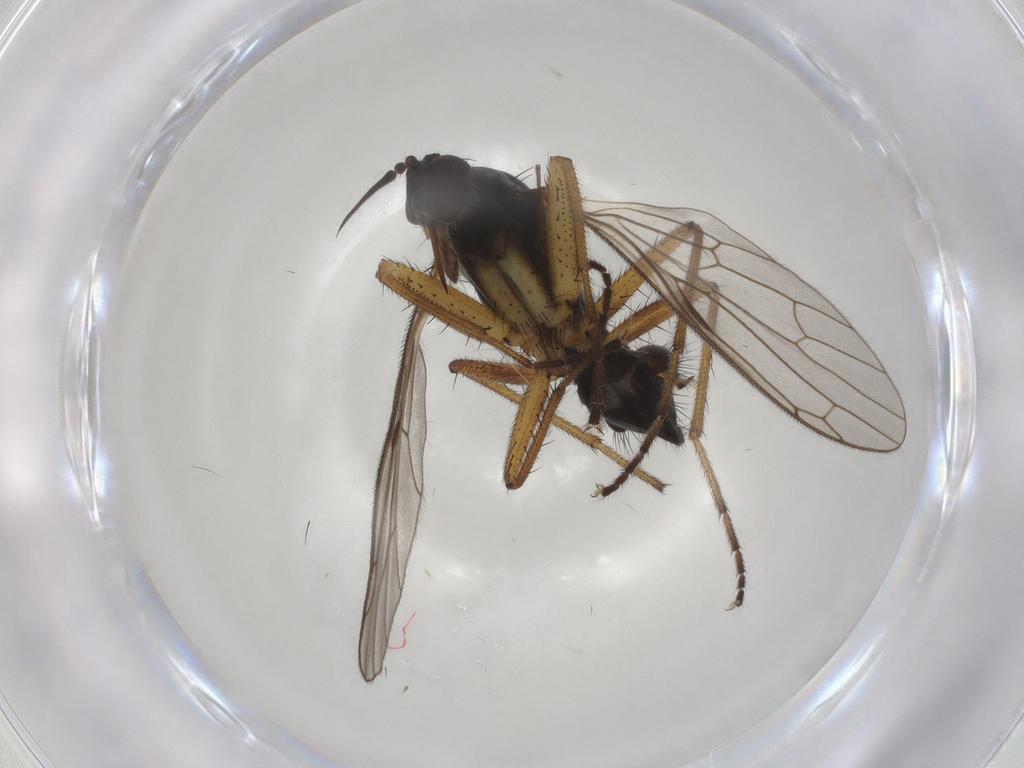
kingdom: Animalia
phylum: Arthropoda
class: Insecta
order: Diptera
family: Empididae
